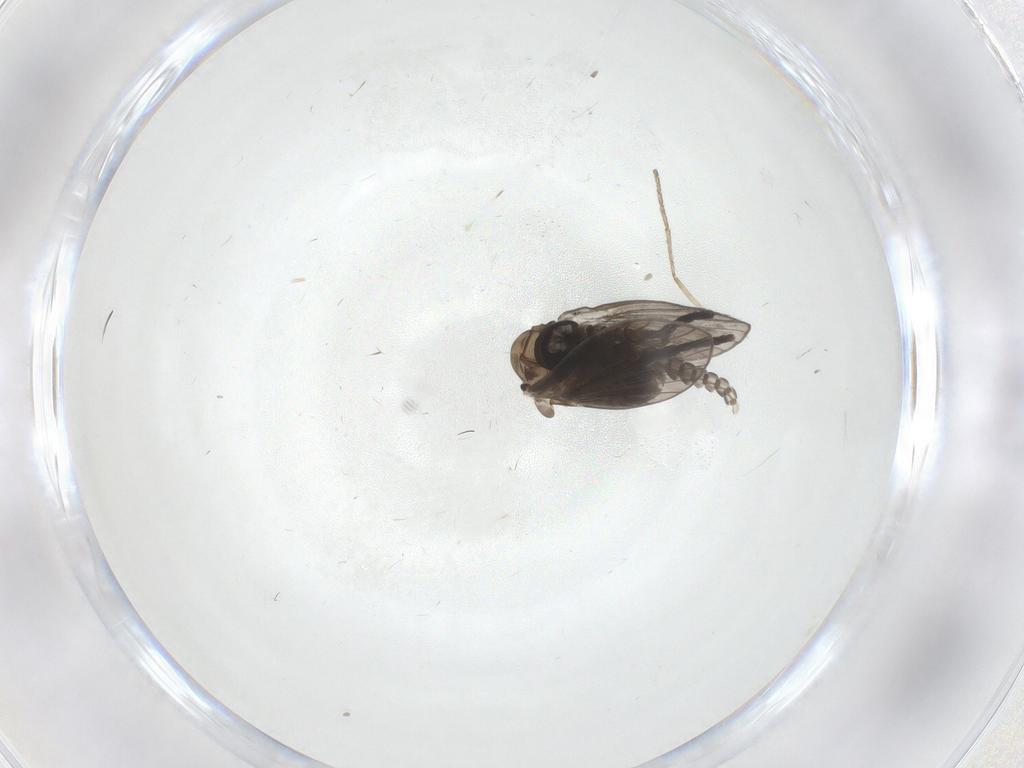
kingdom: Animalia
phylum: Arthropoda
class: Insecta
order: Diptera
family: Psychodidae
